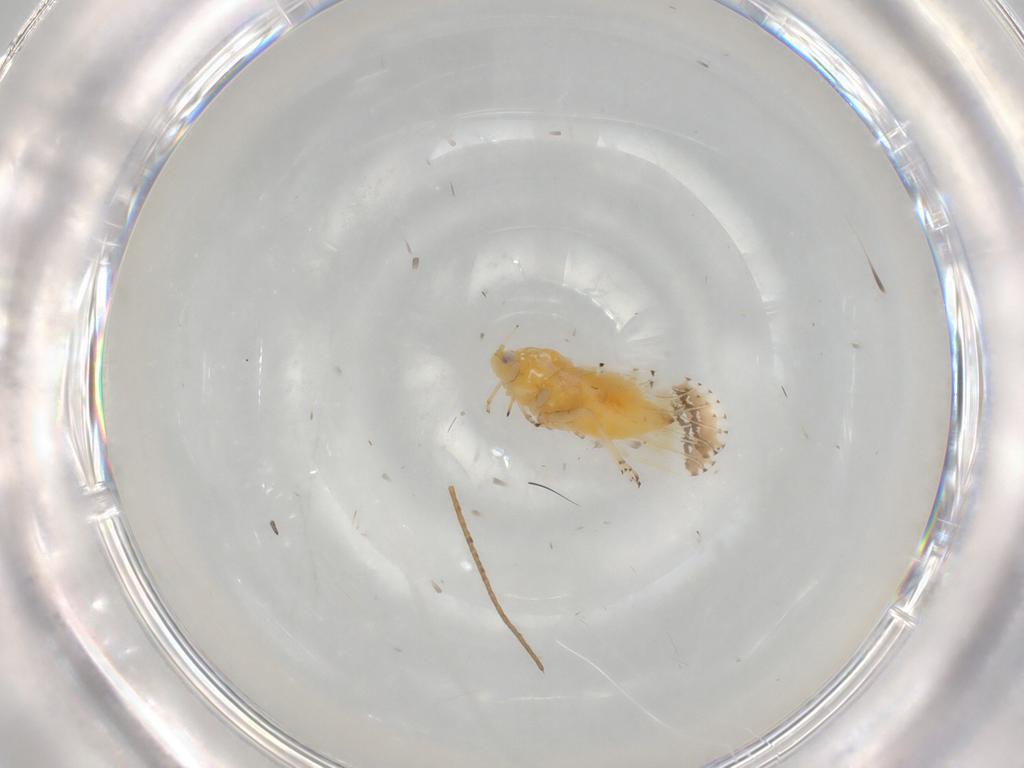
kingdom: Animalia
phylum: Arthropoda
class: Insecta
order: Hemiptera
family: Psyllidae
